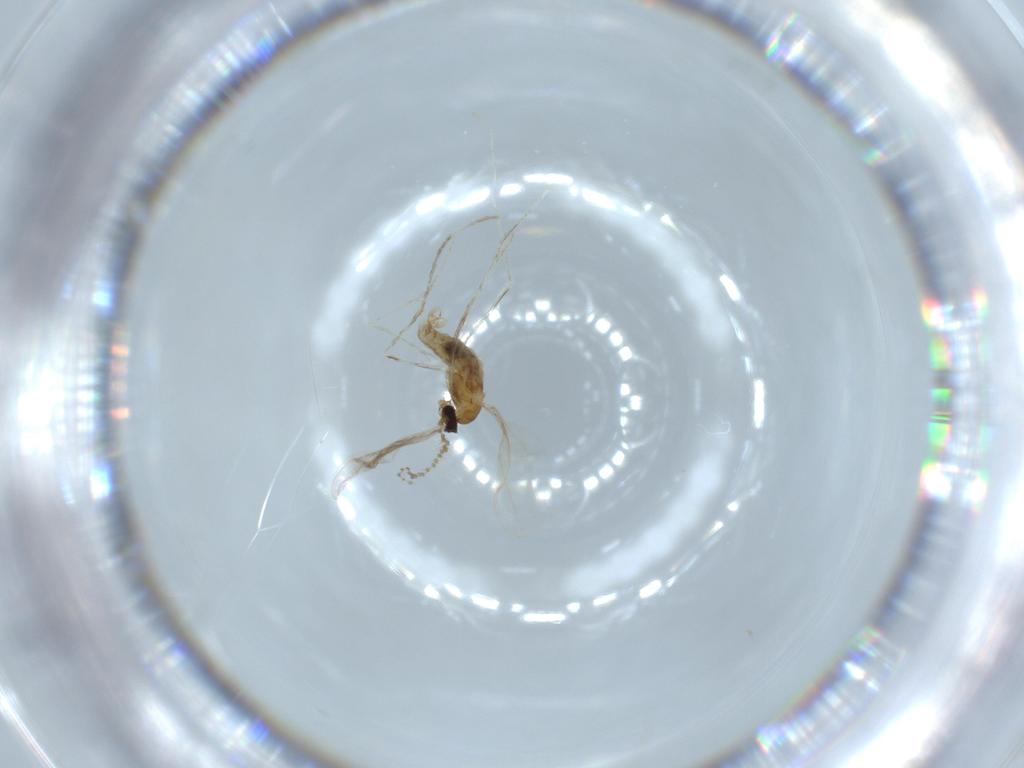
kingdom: Animalia
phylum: Arthropoda
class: Insecta
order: Diptera
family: Cecidomyiidae
